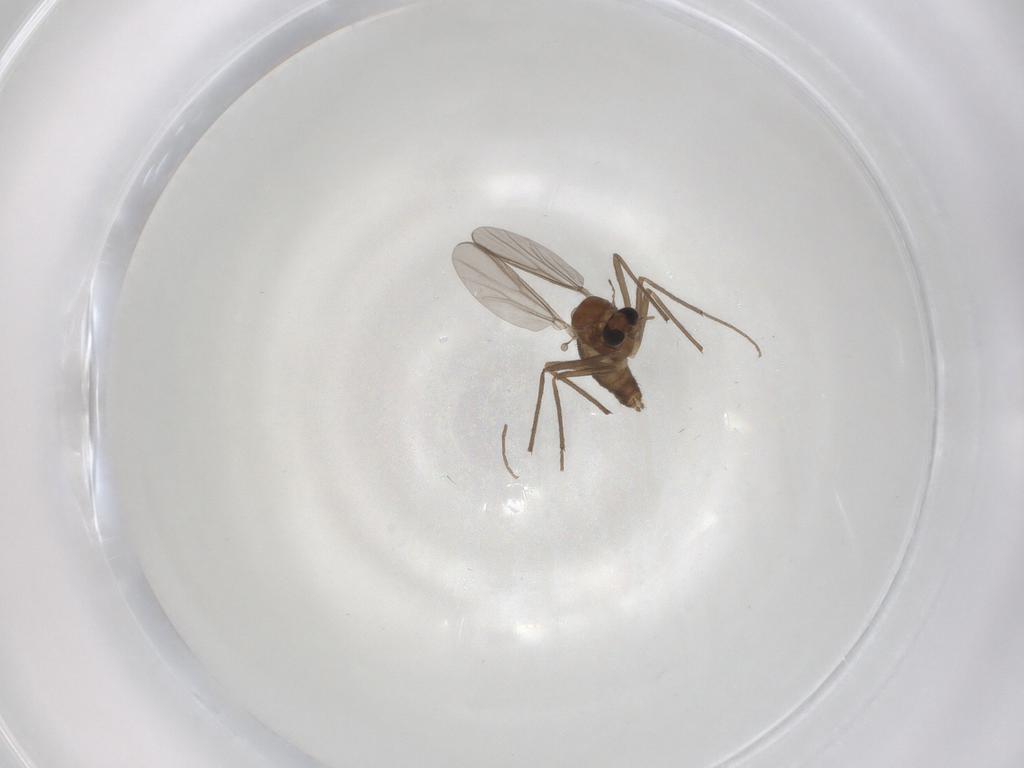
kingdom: Animalia
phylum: Arthropoda
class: Insecta
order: Diptera
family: Chironomidae
